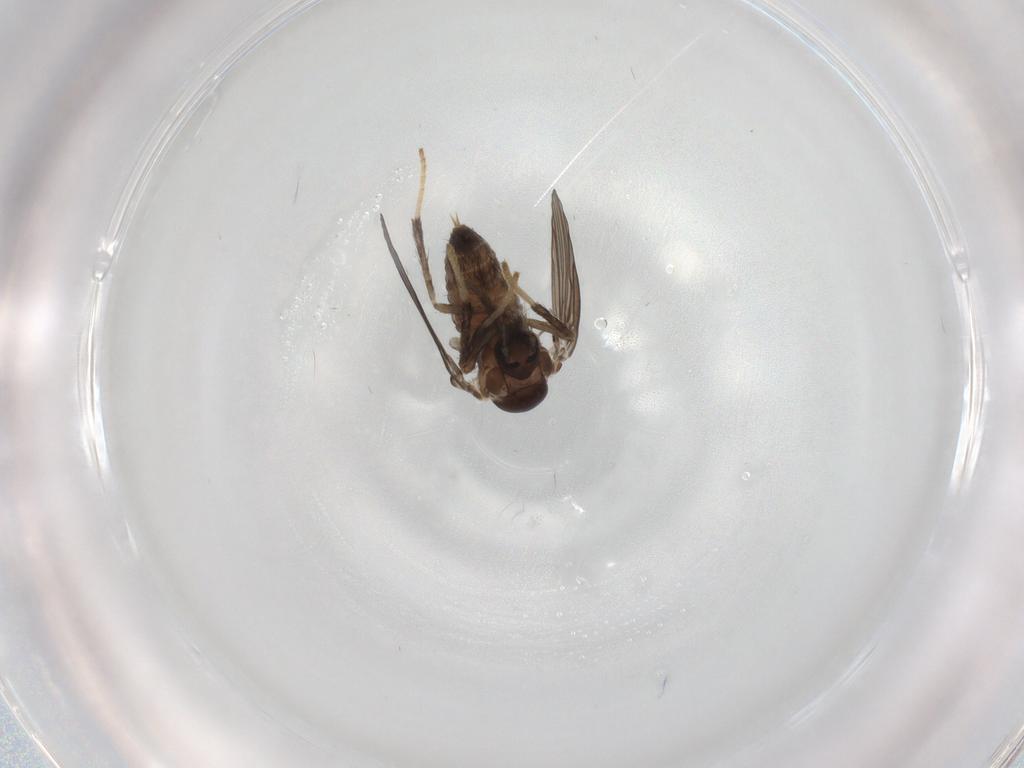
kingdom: Animalia
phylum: Arthropoda
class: Insecta
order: Diptera
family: Psychodidae
